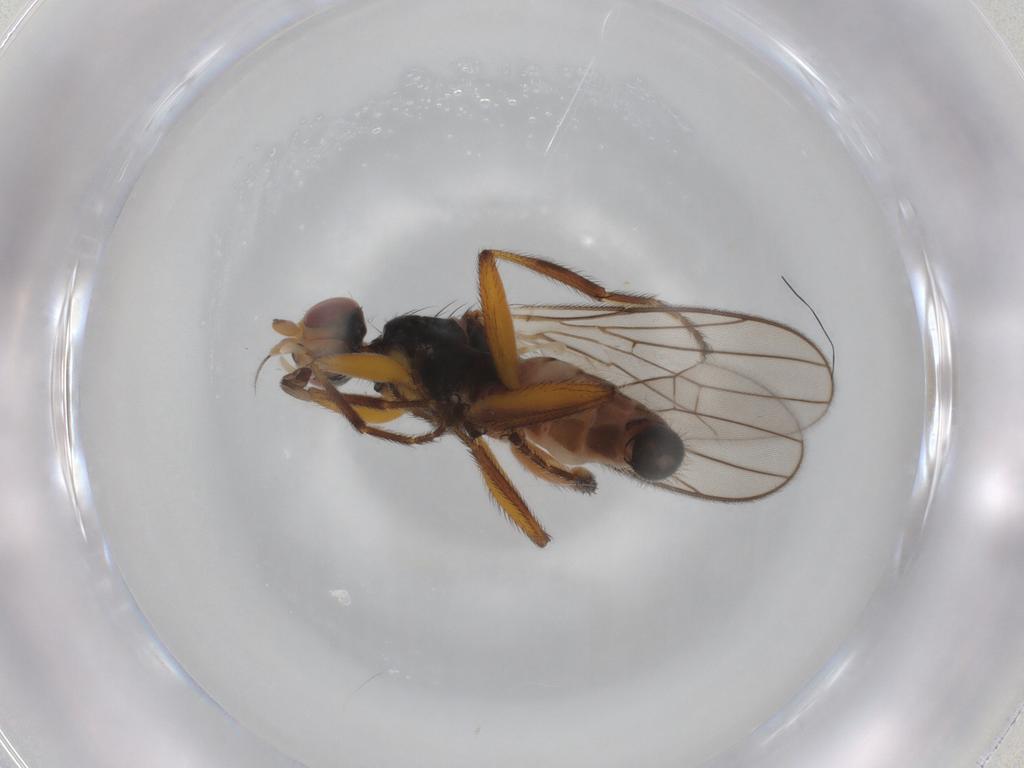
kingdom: Animalia
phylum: Arthropoda
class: Insecta
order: Diptera
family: Chloropidae
